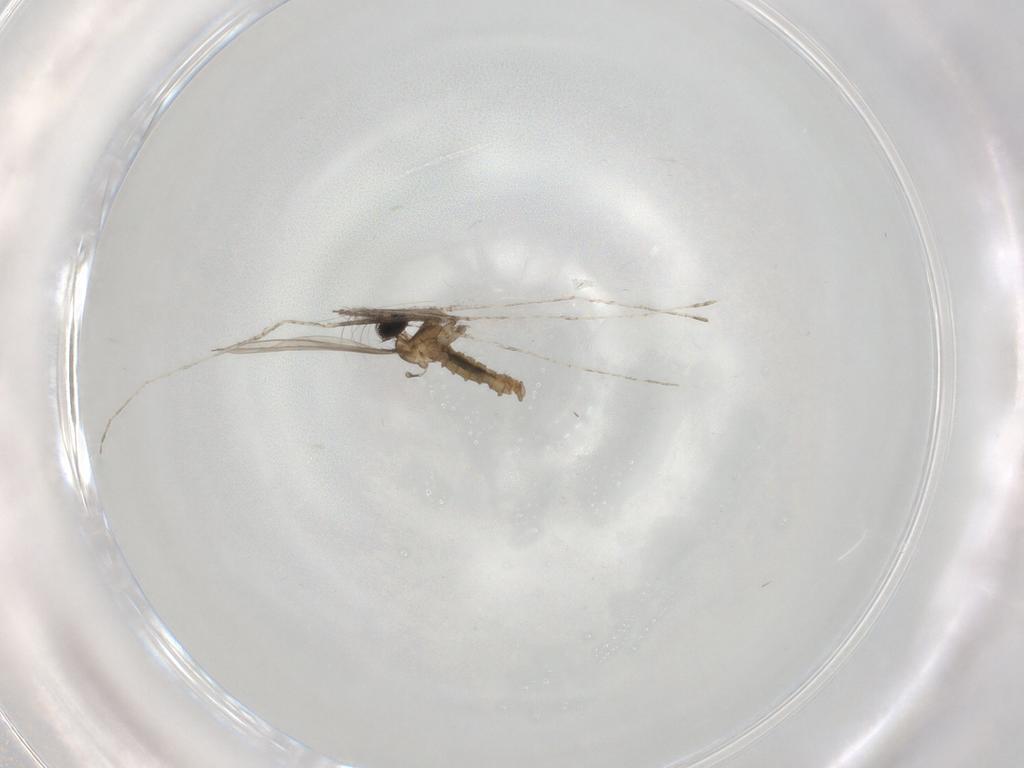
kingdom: Animalia
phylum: Arthropoda
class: Insecta
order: Diptera
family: Cecidomyiidae
